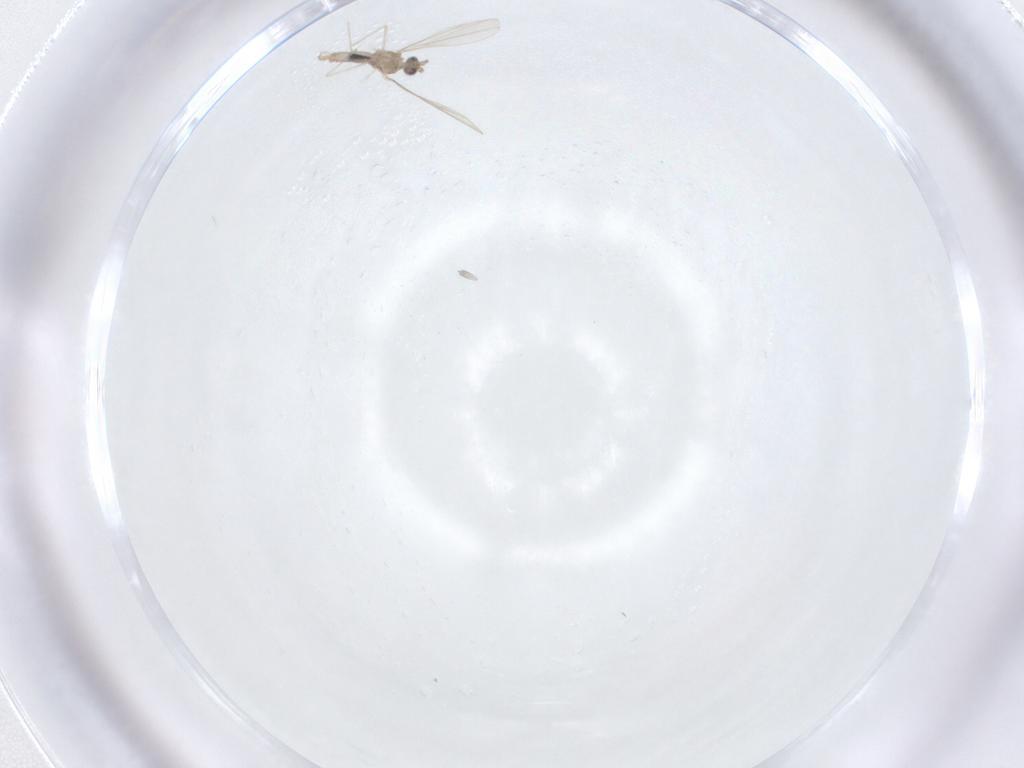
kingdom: Animalia
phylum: Arthropoda
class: Insecta
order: Diptera
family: Cecidomyiidae
